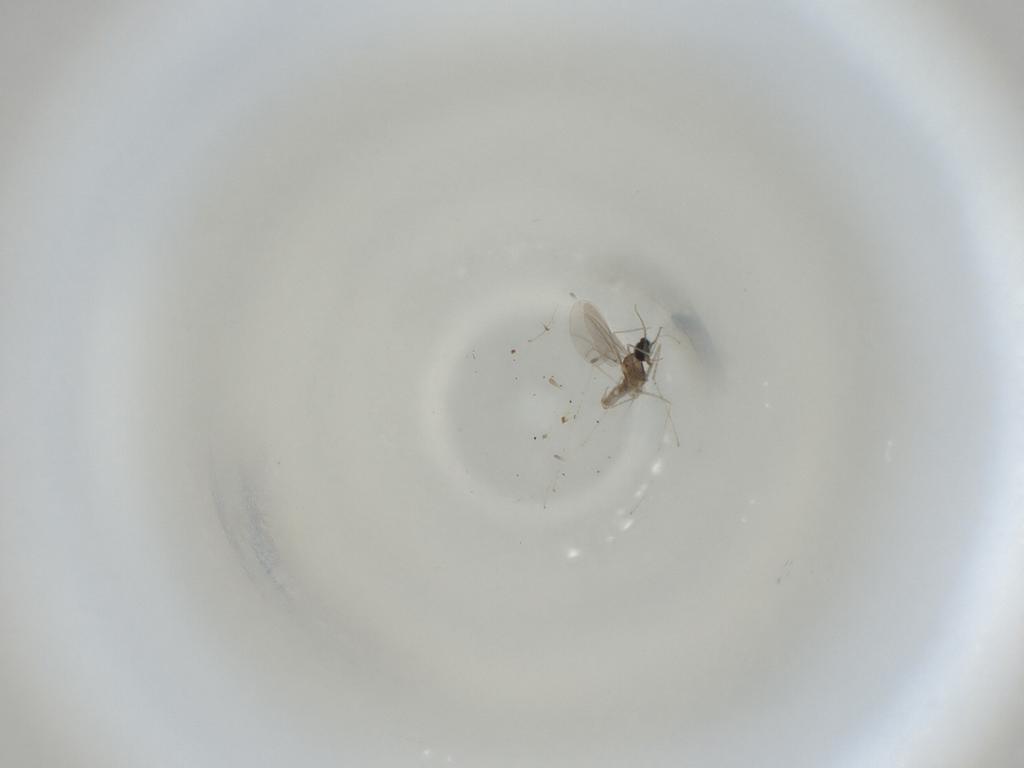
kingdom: Animalia
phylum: Arthropoda
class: Insecta
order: Diptera
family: Cecidomyiidae
